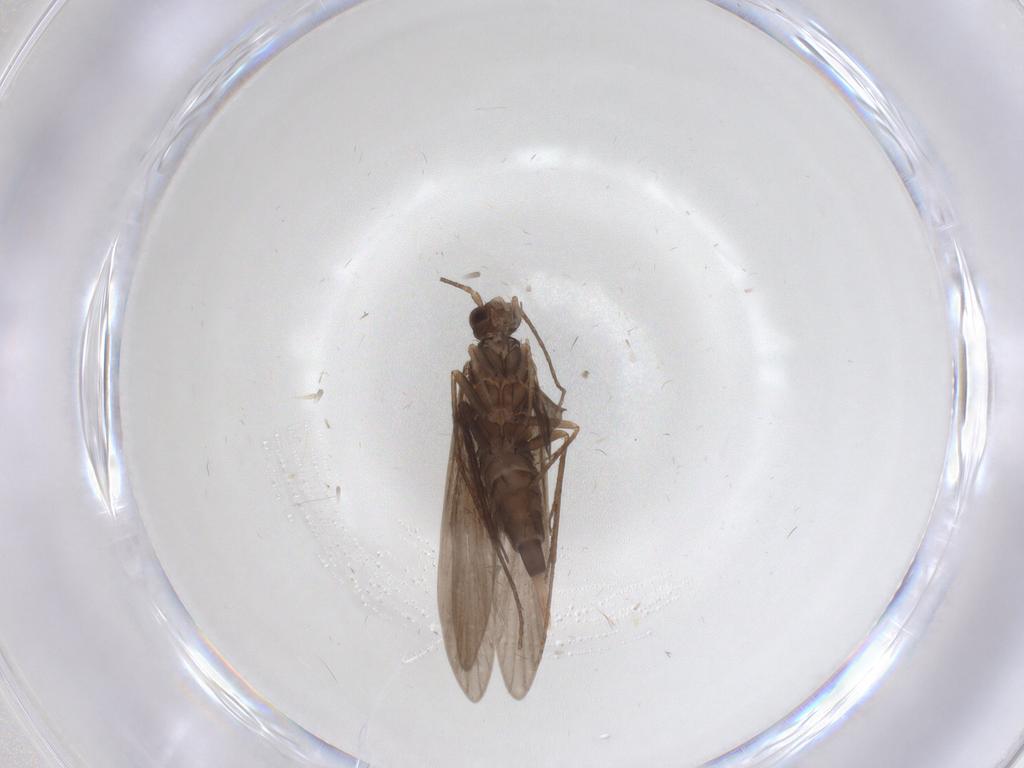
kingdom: Animalia
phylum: Arthropoda
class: Insecta
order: Trichoptera
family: Xiphocentronidae
